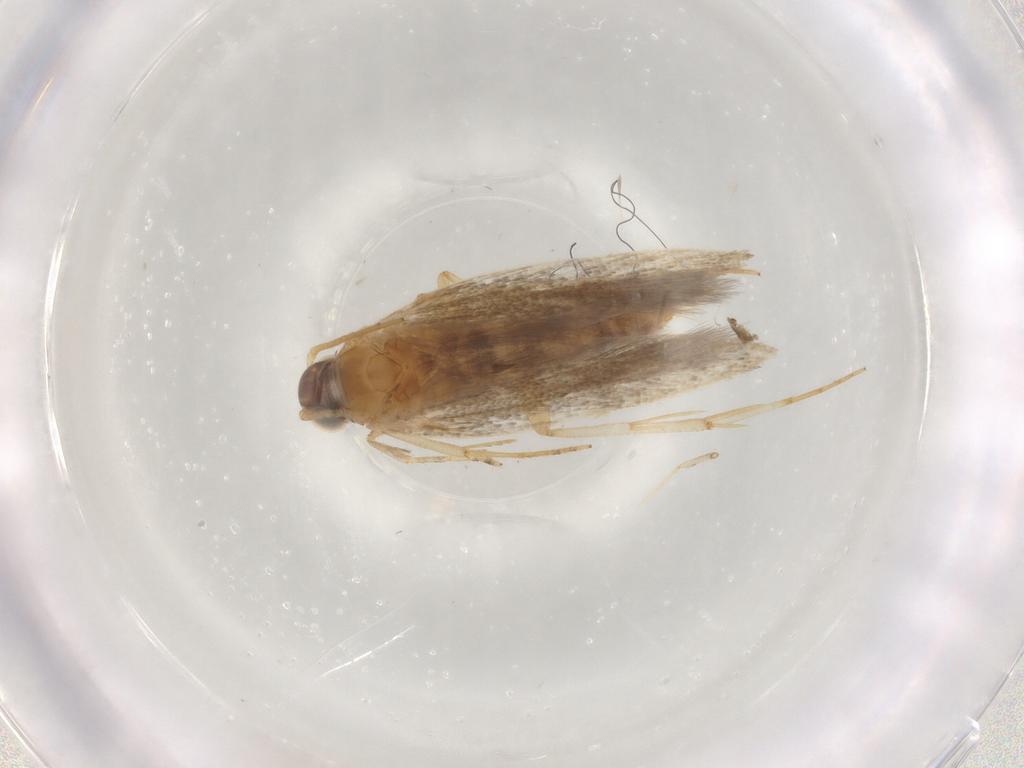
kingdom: Animalia
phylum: Arthropoda
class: Insecta
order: Lepidoptera
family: Plutellidae
